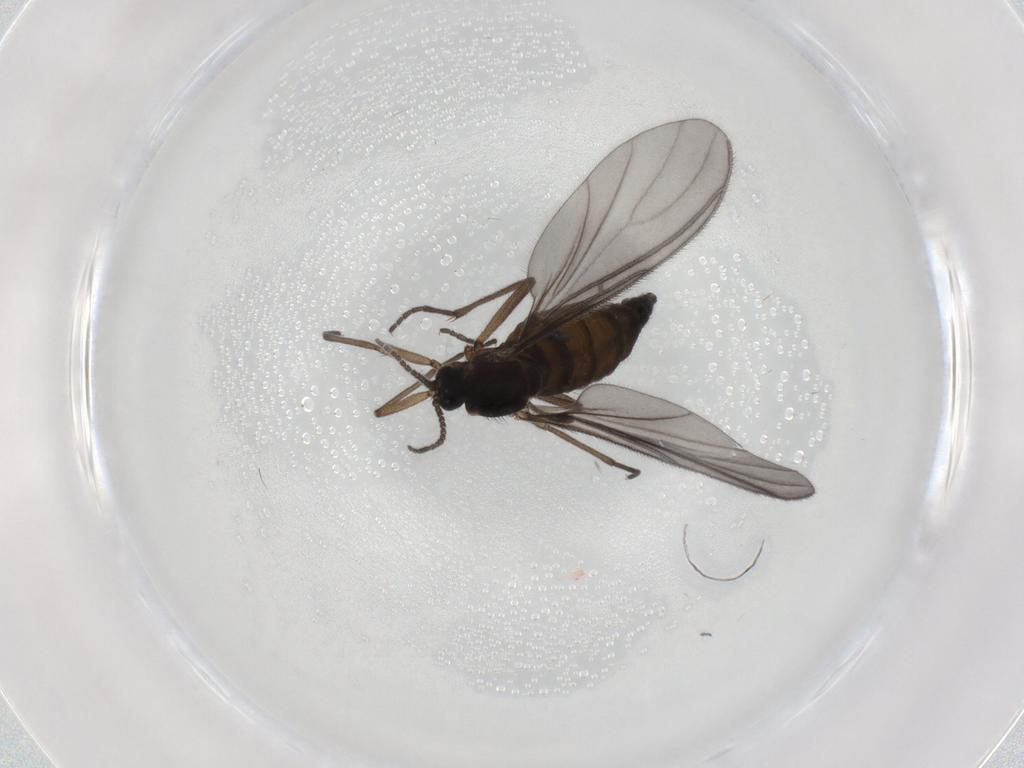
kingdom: Animalia
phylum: Arthropoda
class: Insecta
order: Diptera
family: Sciaridae
